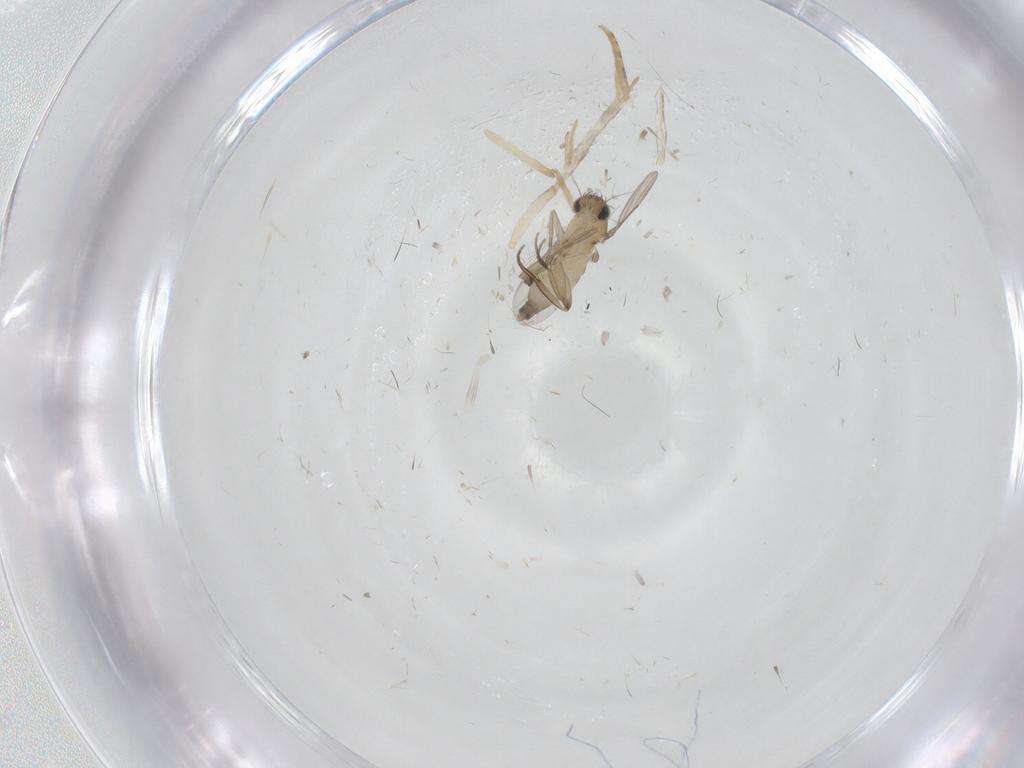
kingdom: Animalia
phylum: Arthropoda
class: Insecta
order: Diptera
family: Phoridae
